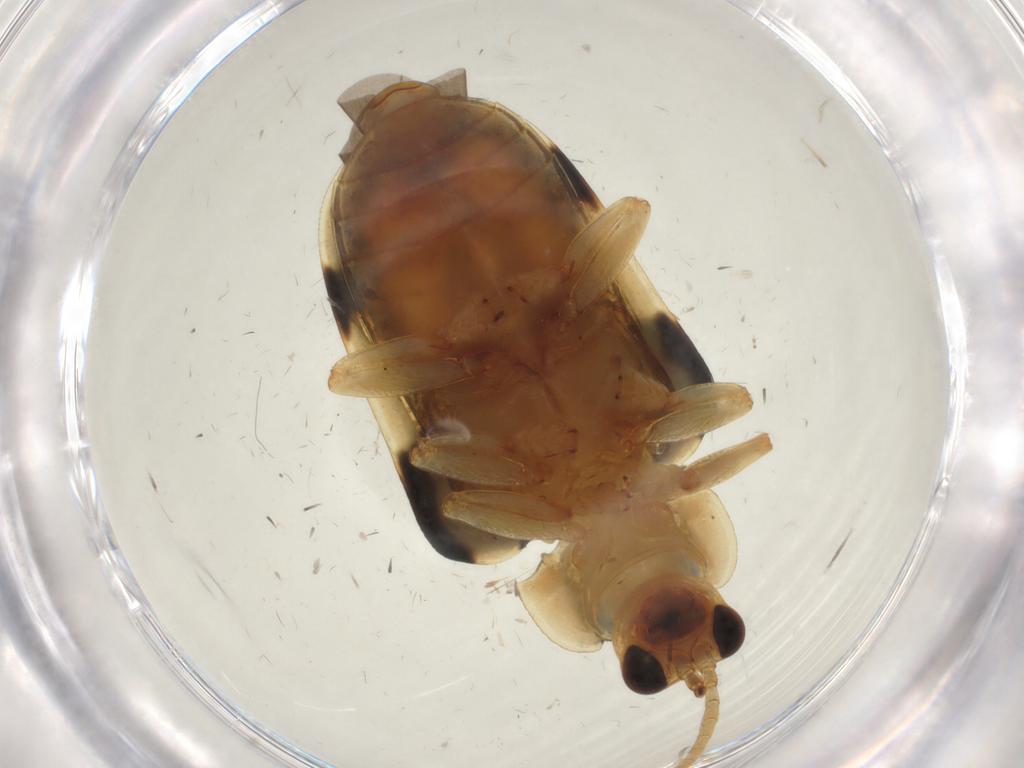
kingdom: Animalia
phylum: Arthropoda
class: Insecta
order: Coleoptera
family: Chrysomelidae
